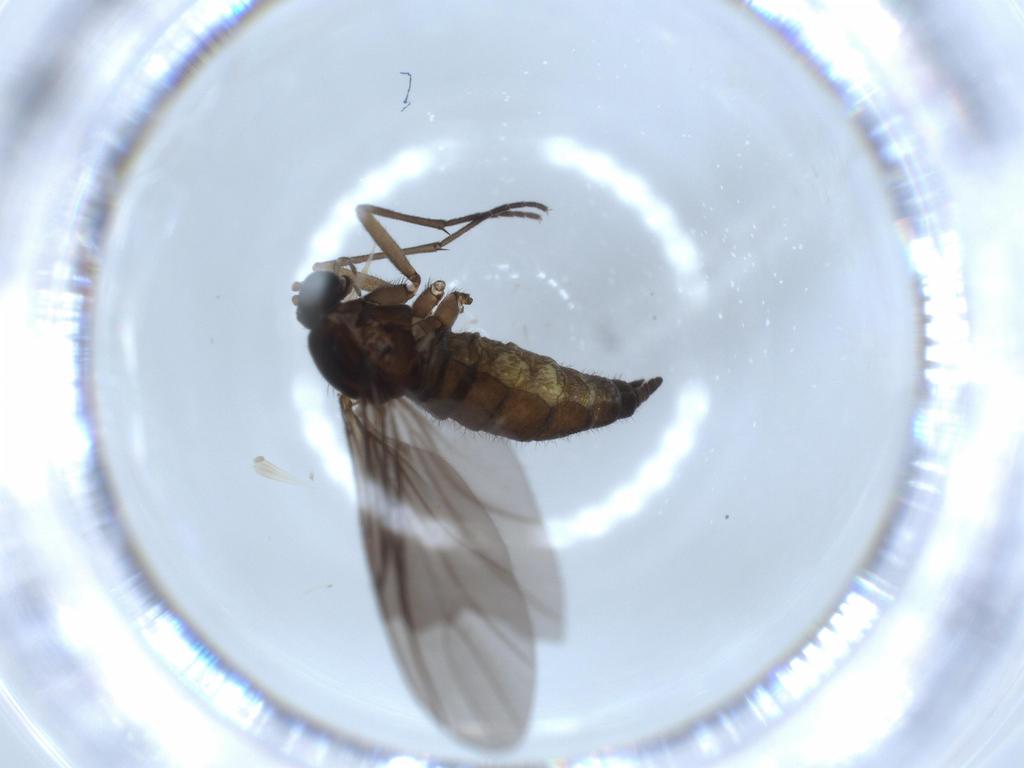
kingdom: Animalia
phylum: Arthropoda
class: Insecta
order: Diptera
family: Sciaridae
